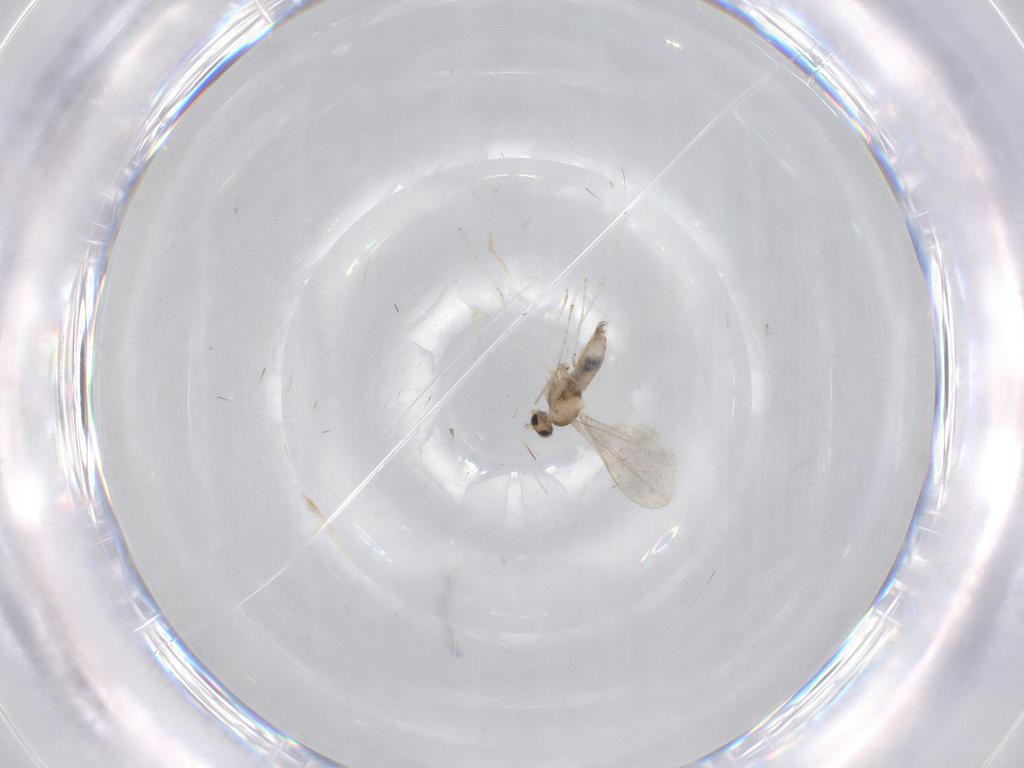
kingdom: Animalia
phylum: Arthropoda
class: Insecta
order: Diptera
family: Cecidomyiidae
